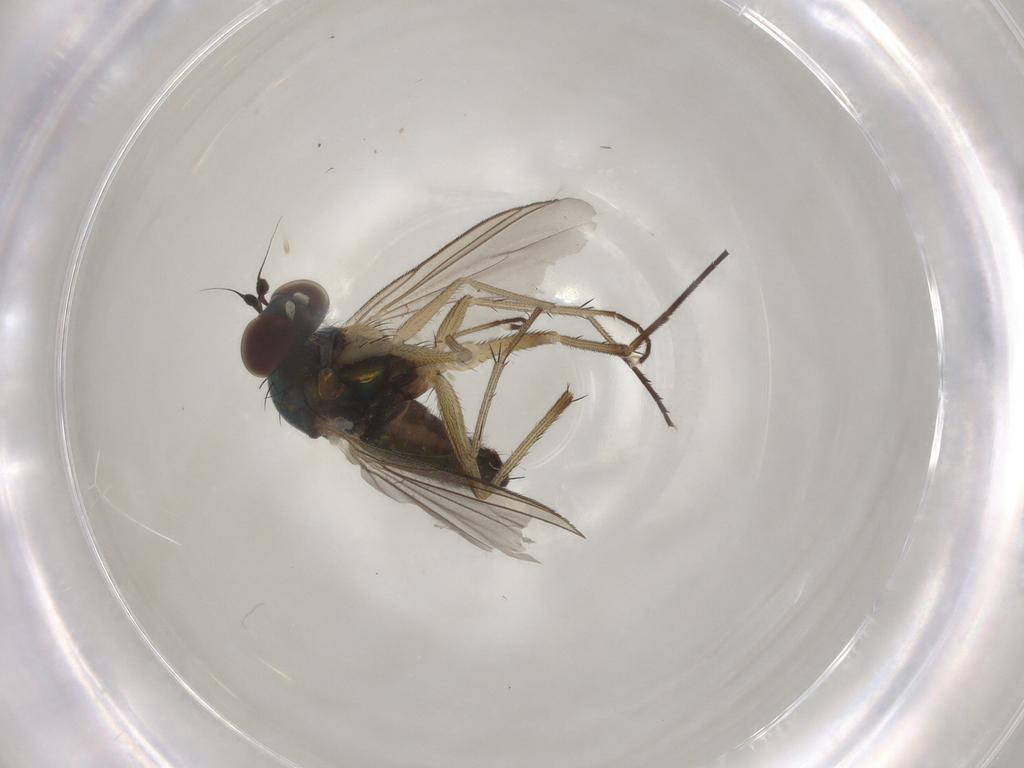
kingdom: Animalia
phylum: Arthropoda
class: Insecta
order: Diptera
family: Dolichopodidae
